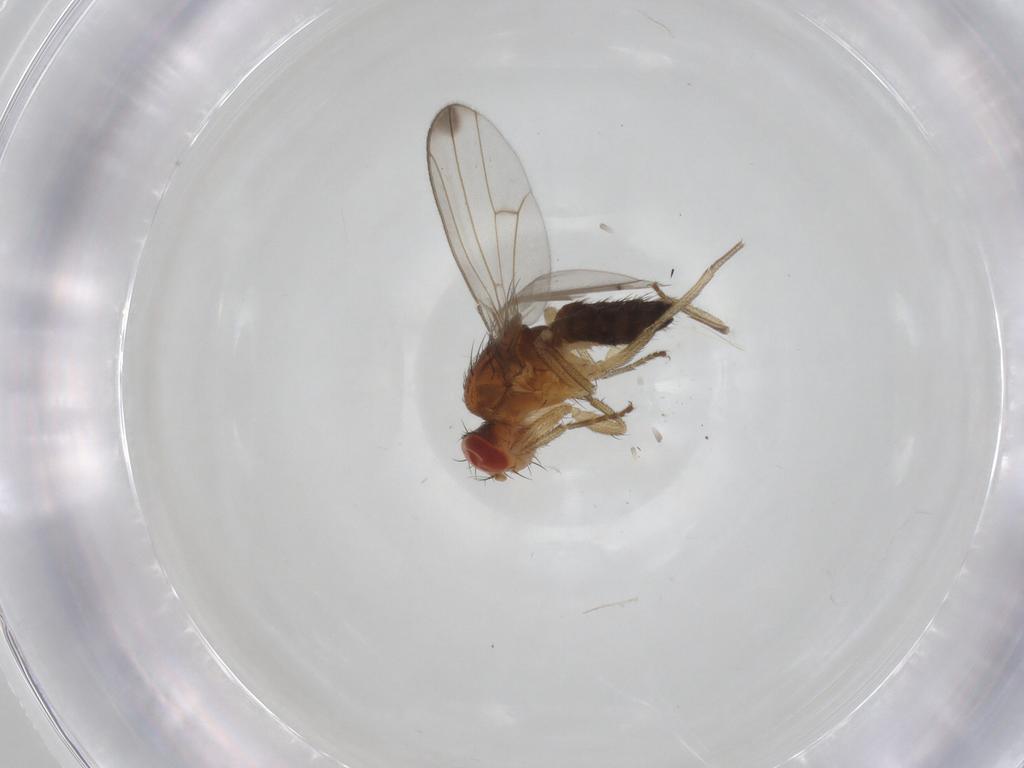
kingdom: Animalia
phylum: Arthropoda
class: Insecta
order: Diptera
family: Drosophilidae
